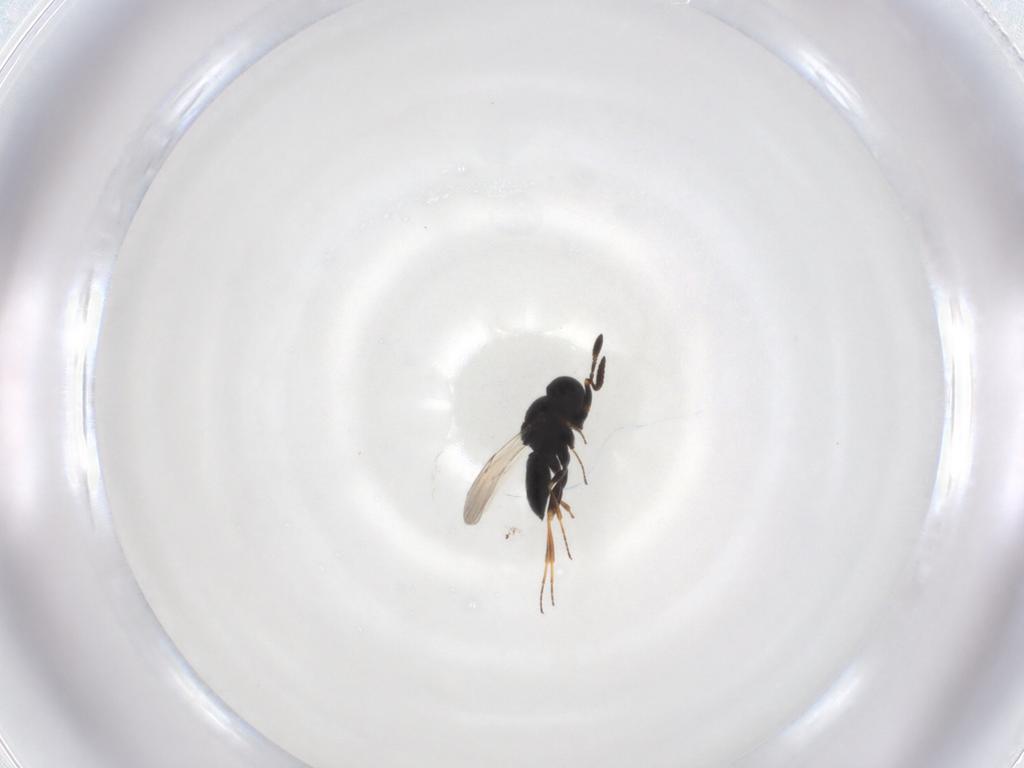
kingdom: Animalia
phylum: Arthropoda
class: Insecta
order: Hymenoptera
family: Scelionidae
